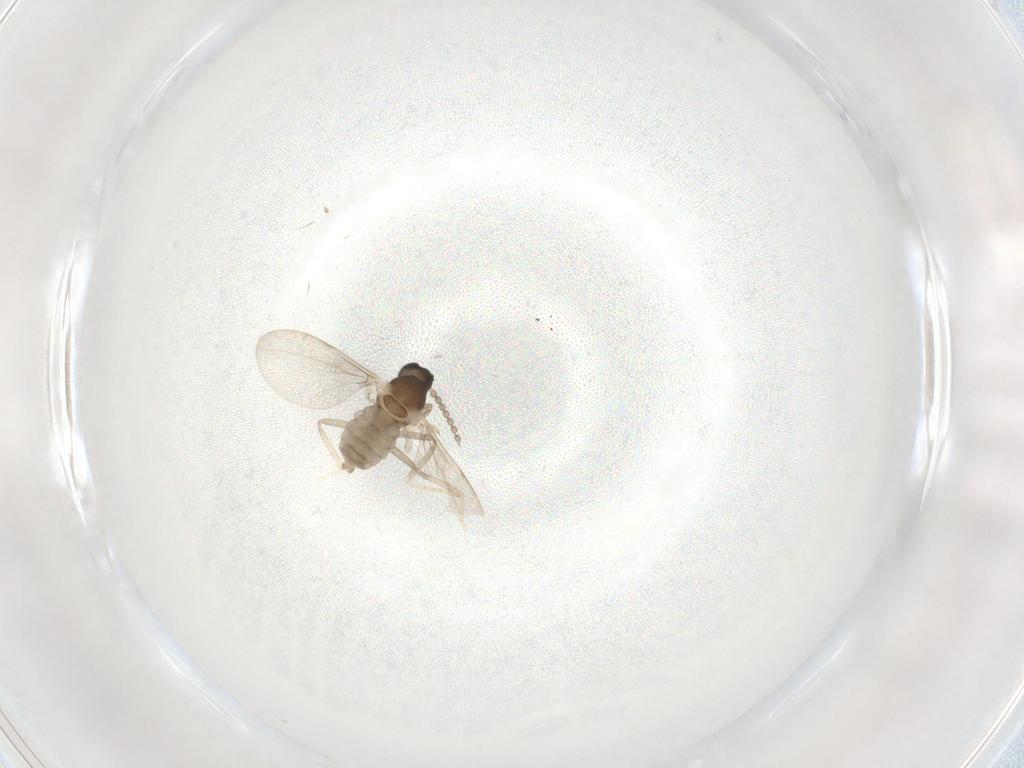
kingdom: Animalia
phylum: Arthropoda
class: Insecta
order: Diptera
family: Cecidomyiidae
